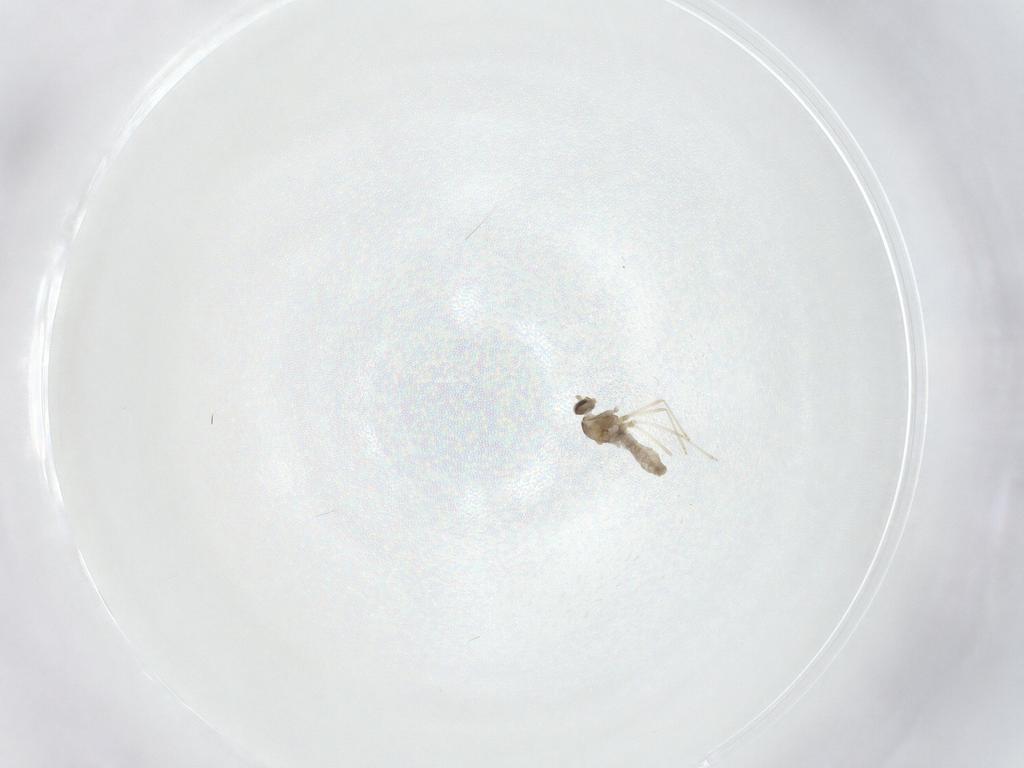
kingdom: Animalia
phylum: Arthropoda
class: Insecta
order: Diptera
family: Cecidomyiidae
